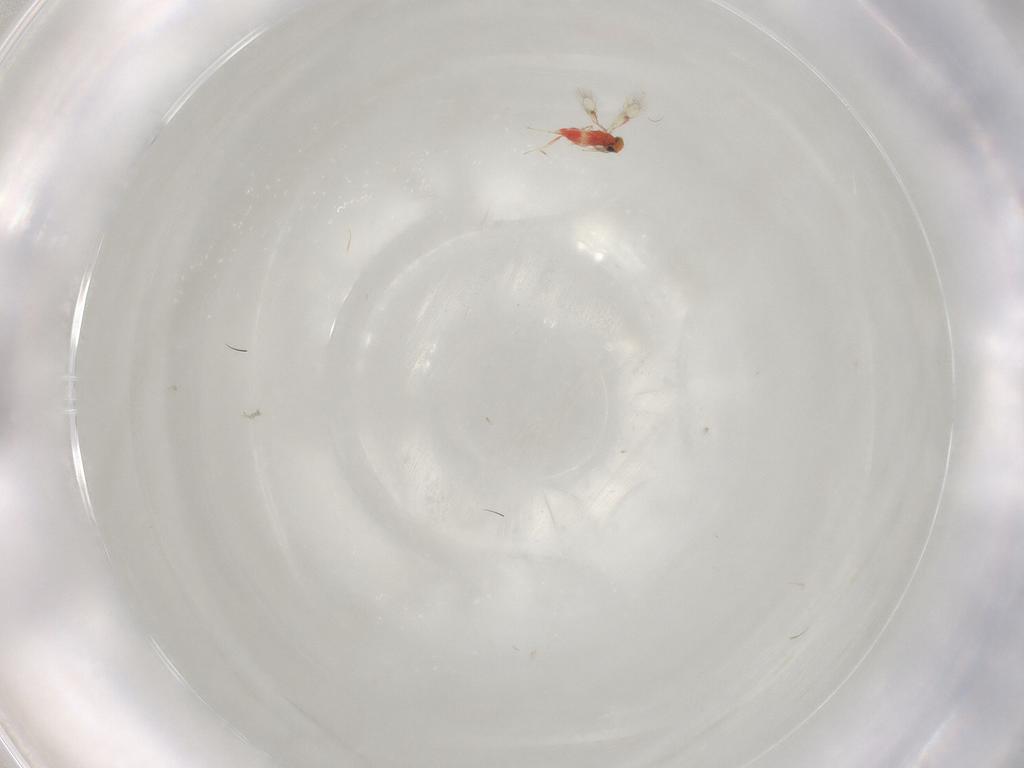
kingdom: Animalia
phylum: Arthropoda
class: Insecta
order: Hymenoptera
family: Trichogrammatidae
